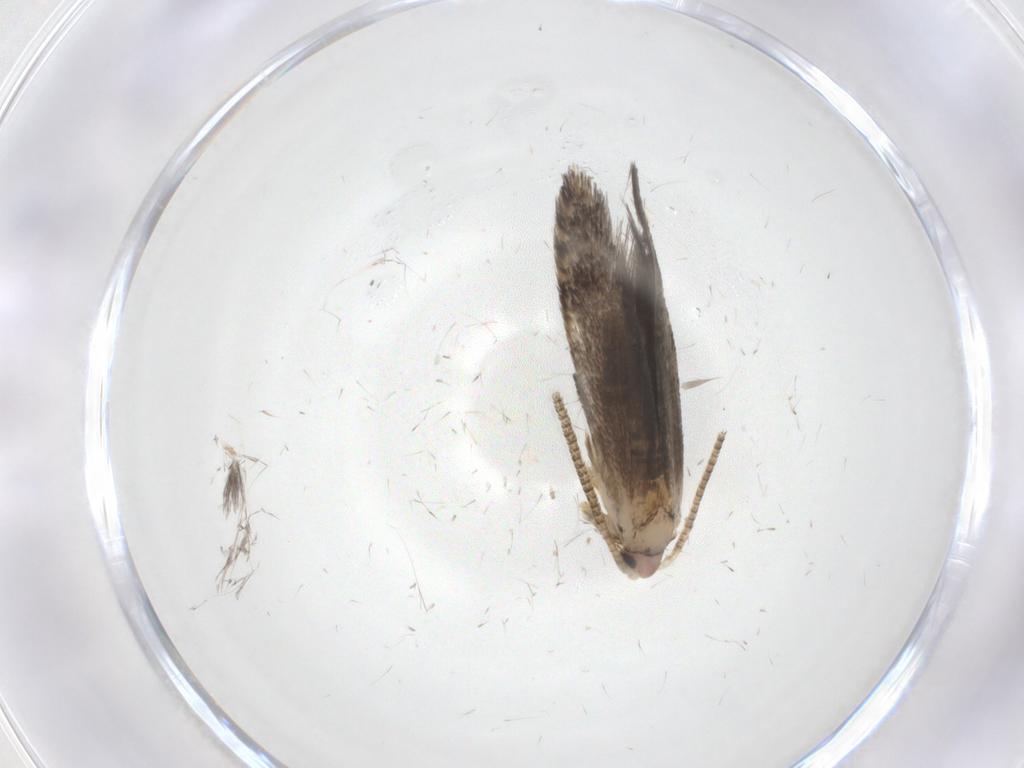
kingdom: Animalia
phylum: Arthropoda
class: Insecta
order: Lepidoptera
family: Tineidae
